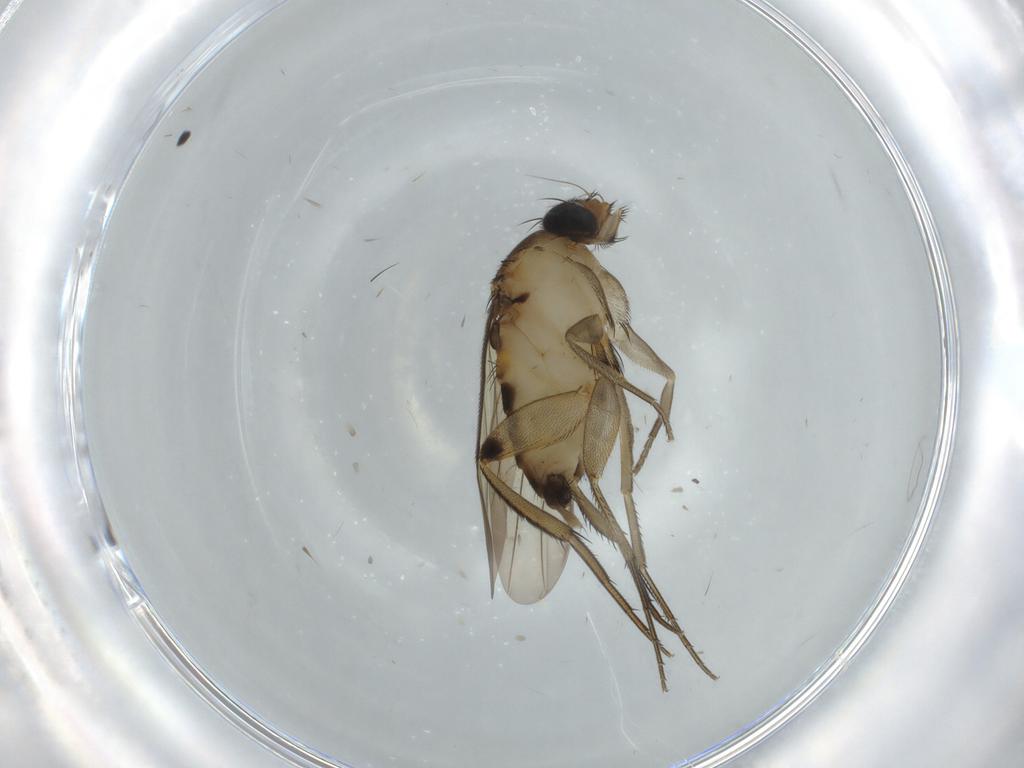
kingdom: Animalia
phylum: Arthropoda
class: Insecta
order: Diptera
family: Phoridae
